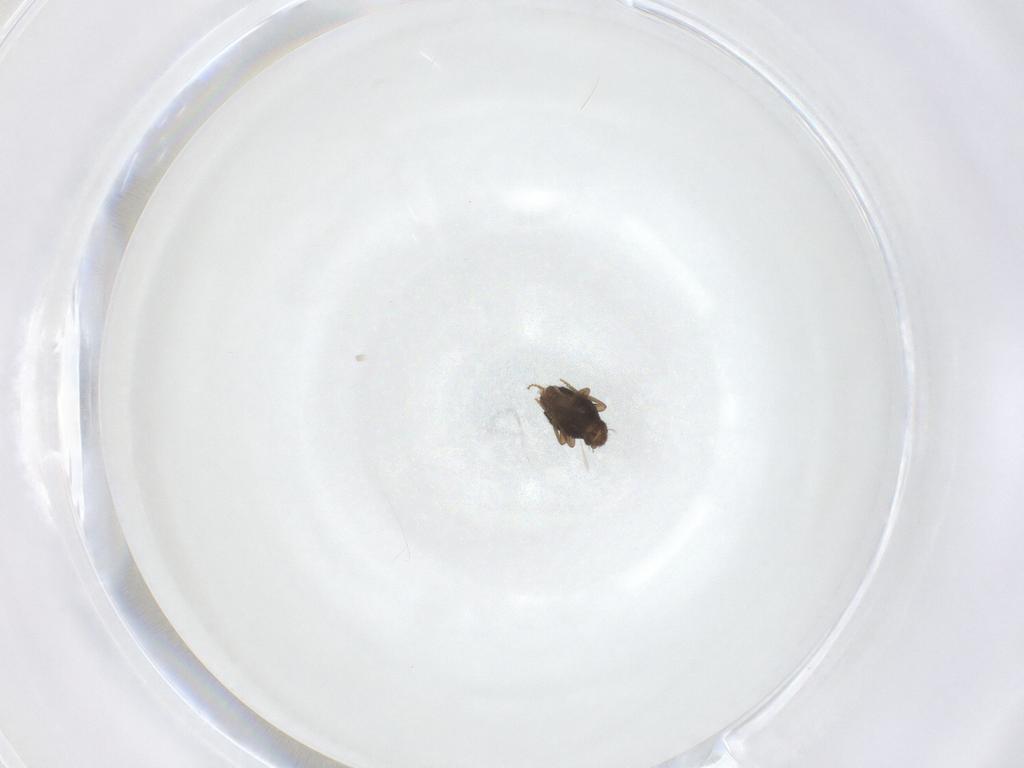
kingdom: Animalia
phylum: Arthropoda
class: Insecta
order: Diptera
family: Phoridae
